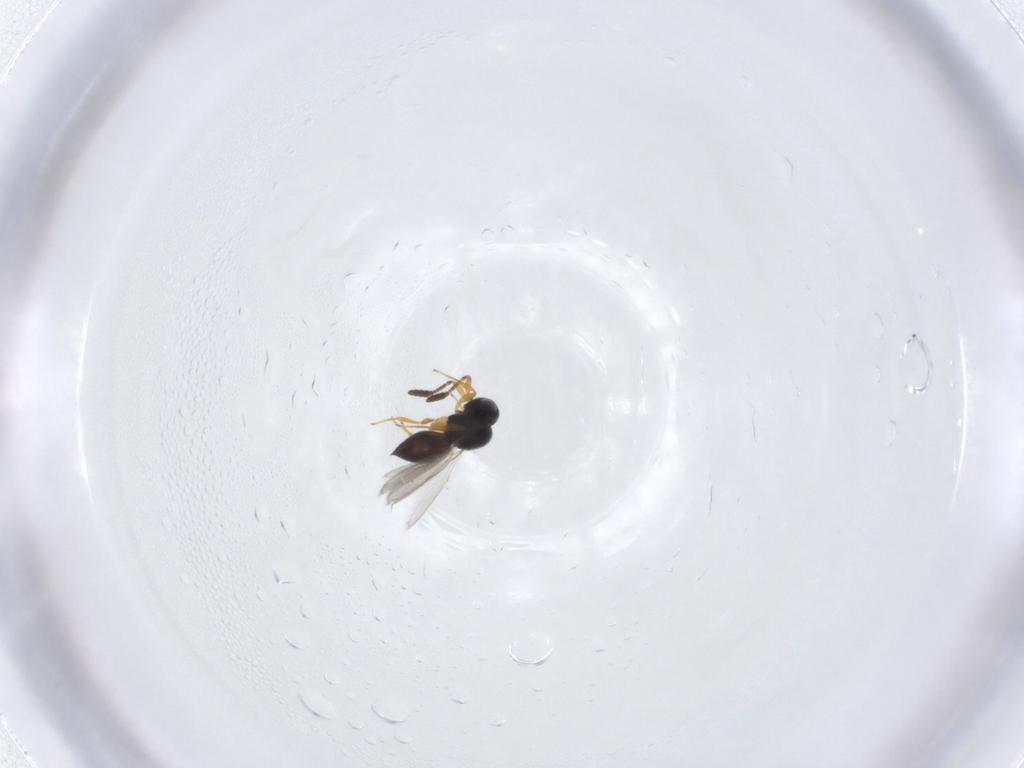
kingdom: Animalia
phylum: Arthropoda
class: Insecta
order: Hymenoptera
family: Scelionidae
